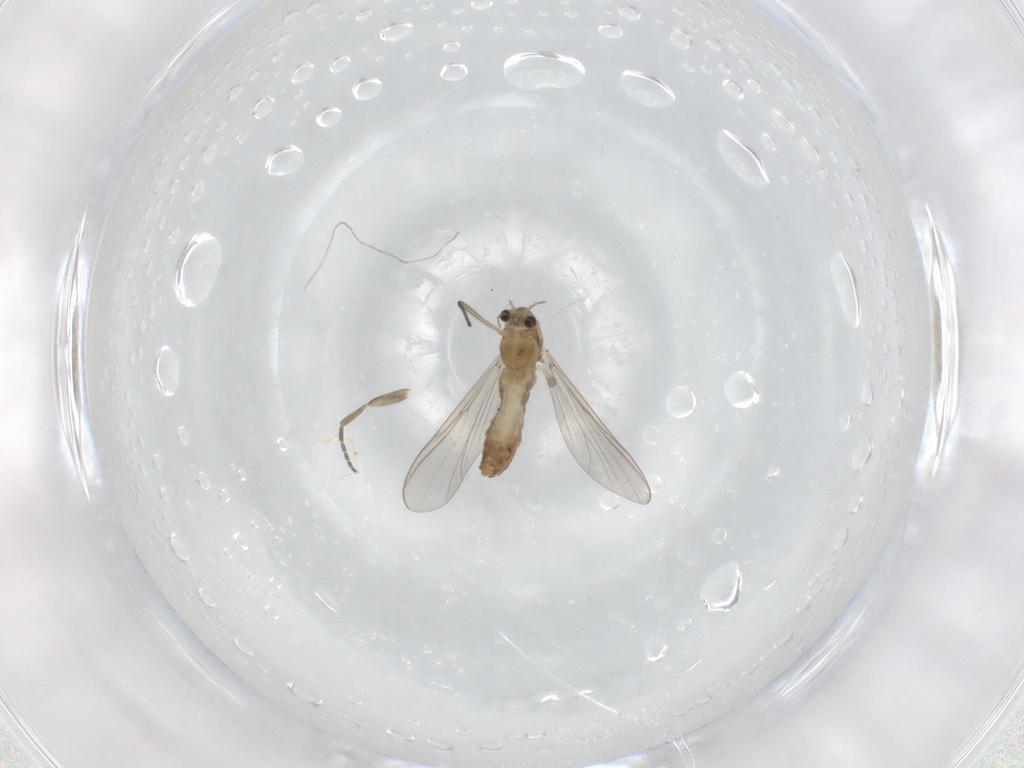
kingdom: Animalia
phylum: Arthropoda
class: Insecta
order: Diptera
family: Chironomidae
